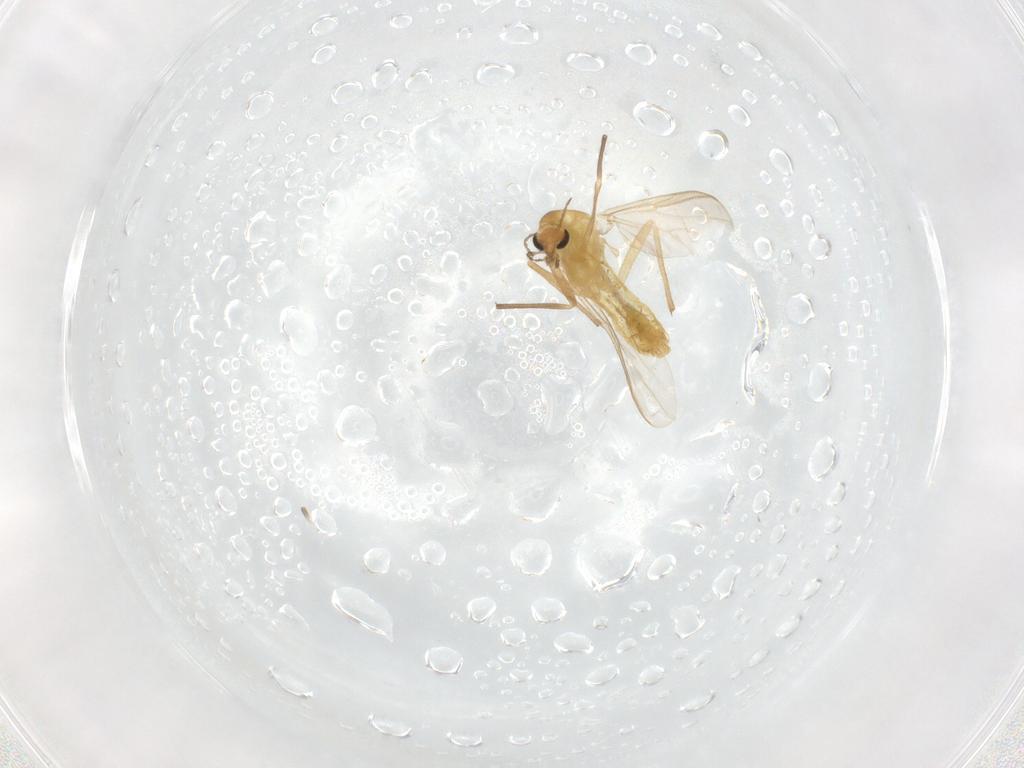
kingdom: Animalia
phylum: Arthropoda
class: Insecta
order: Diptera
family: Chironomidae
